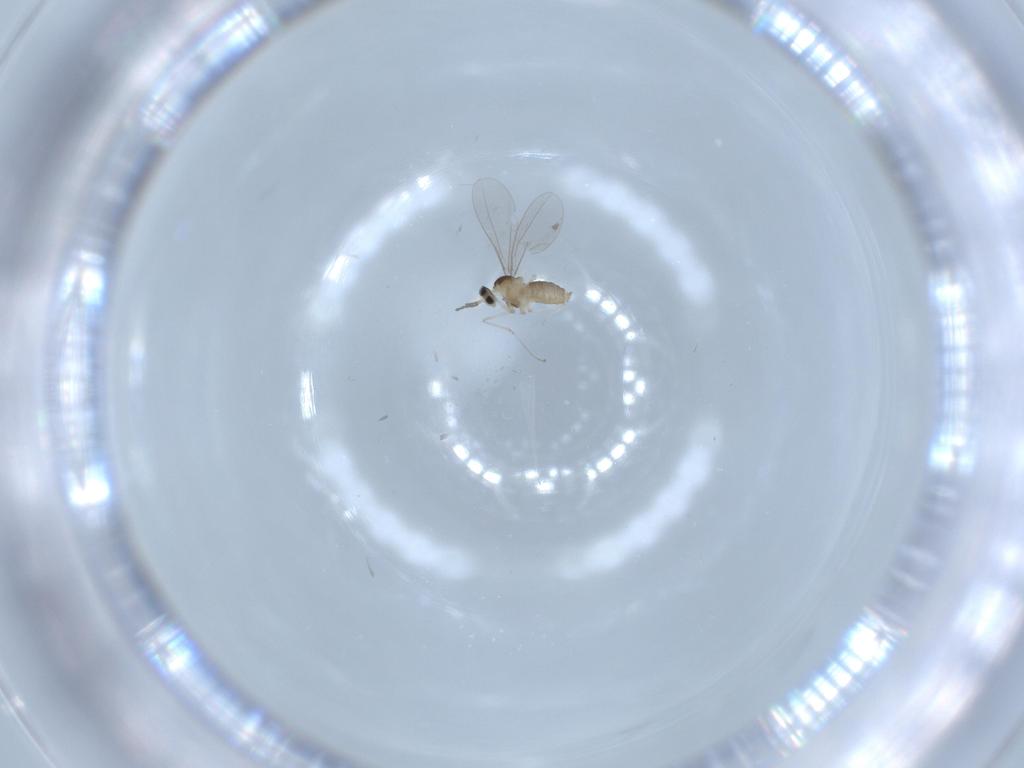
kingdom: Animalia
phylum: Arthropoda
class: Insecta
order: Diptera
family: Cecidomyiidae
